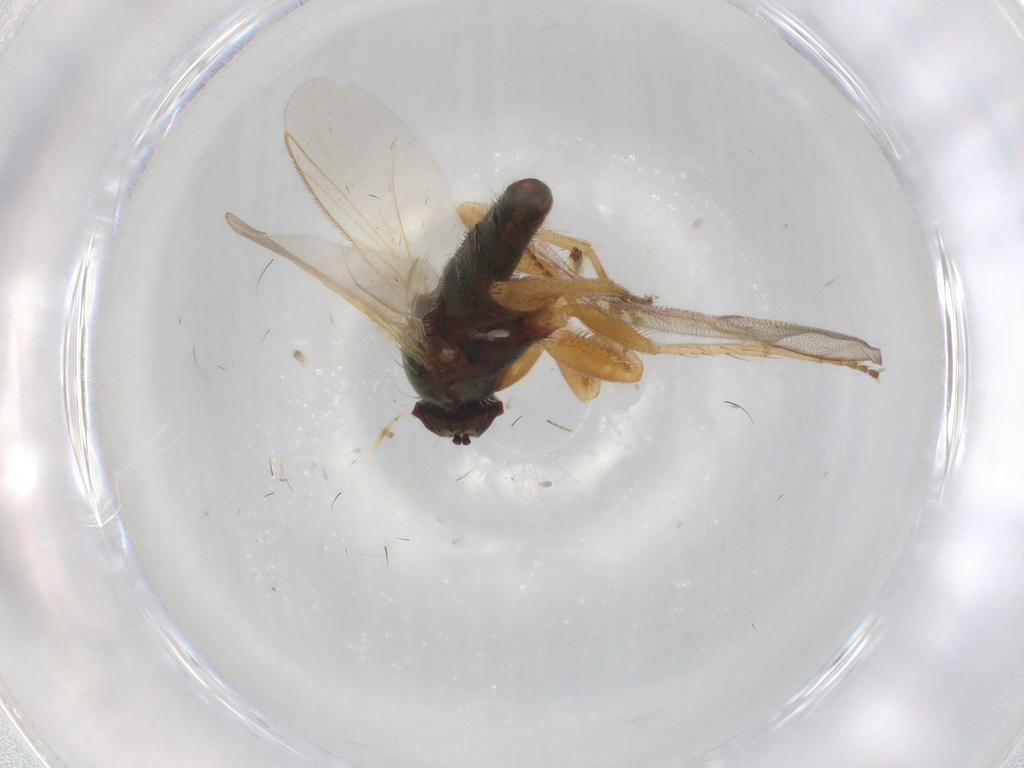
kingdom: Animalia
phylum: Arthropoda
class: Insecta
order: Diptera
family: Dolichopodidae
